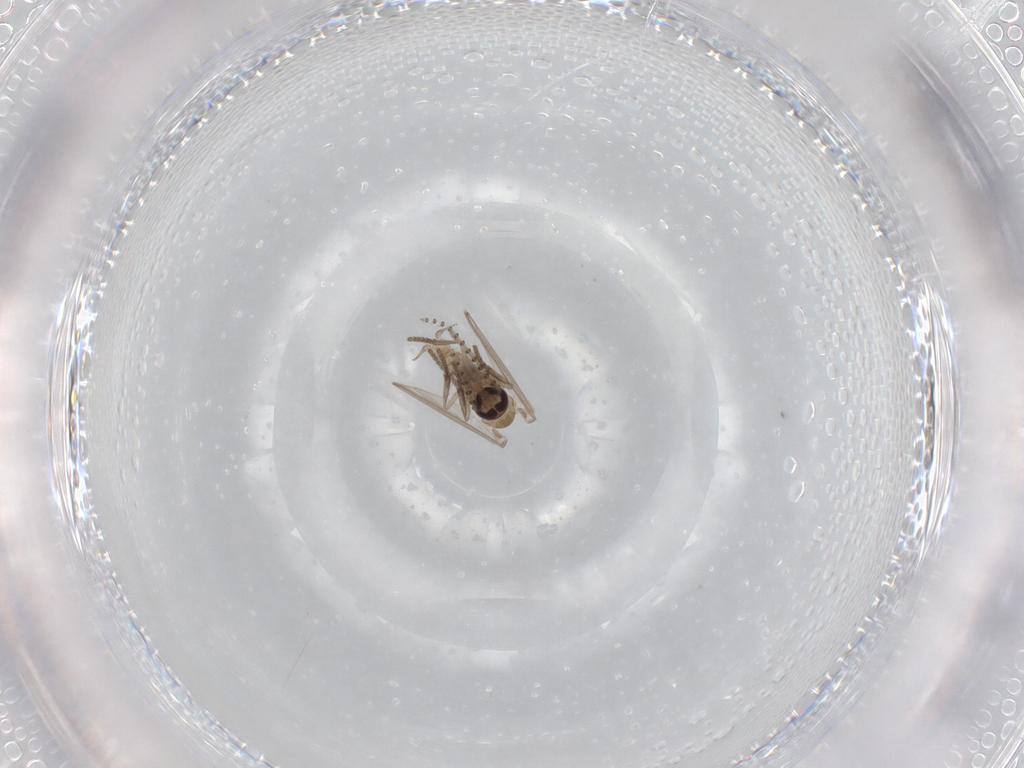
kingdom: Animalia
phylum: Arthropoda
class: Insecta
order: Diptera
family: Psychodidae
